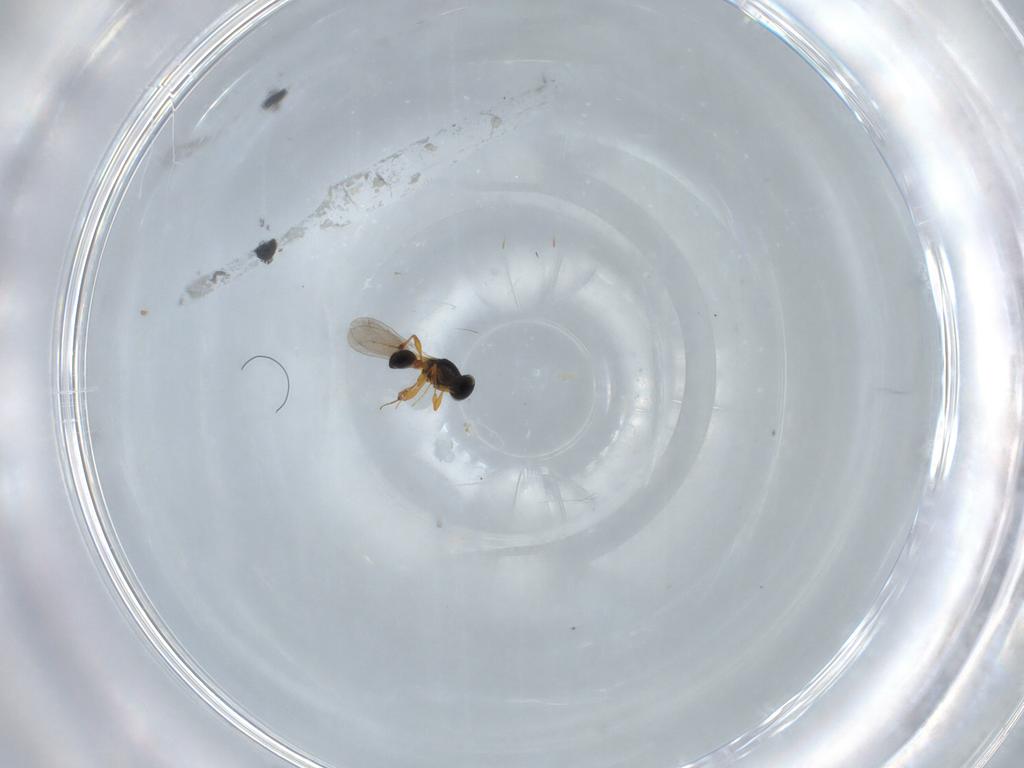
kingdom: Animalia
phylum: Arthropoda
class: Insecta
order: Hymenoptera
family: Platygastridae
